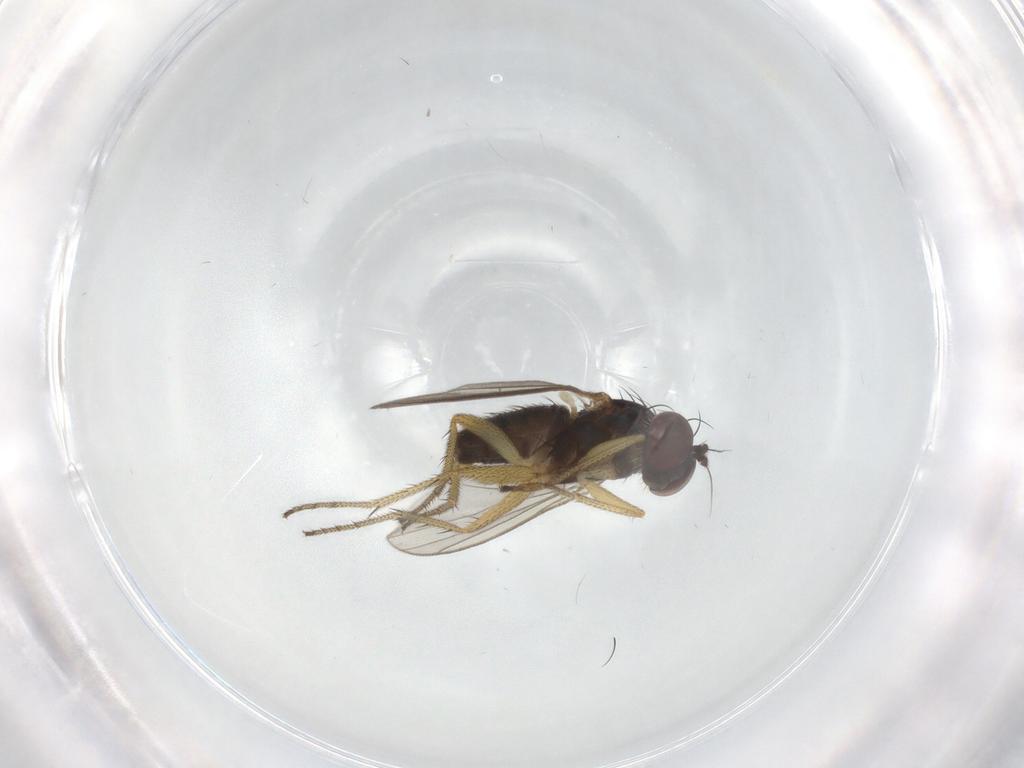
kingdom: Animalia
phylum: Arthropoda
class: Insecta
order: Diptera
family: Dolichopodidae
